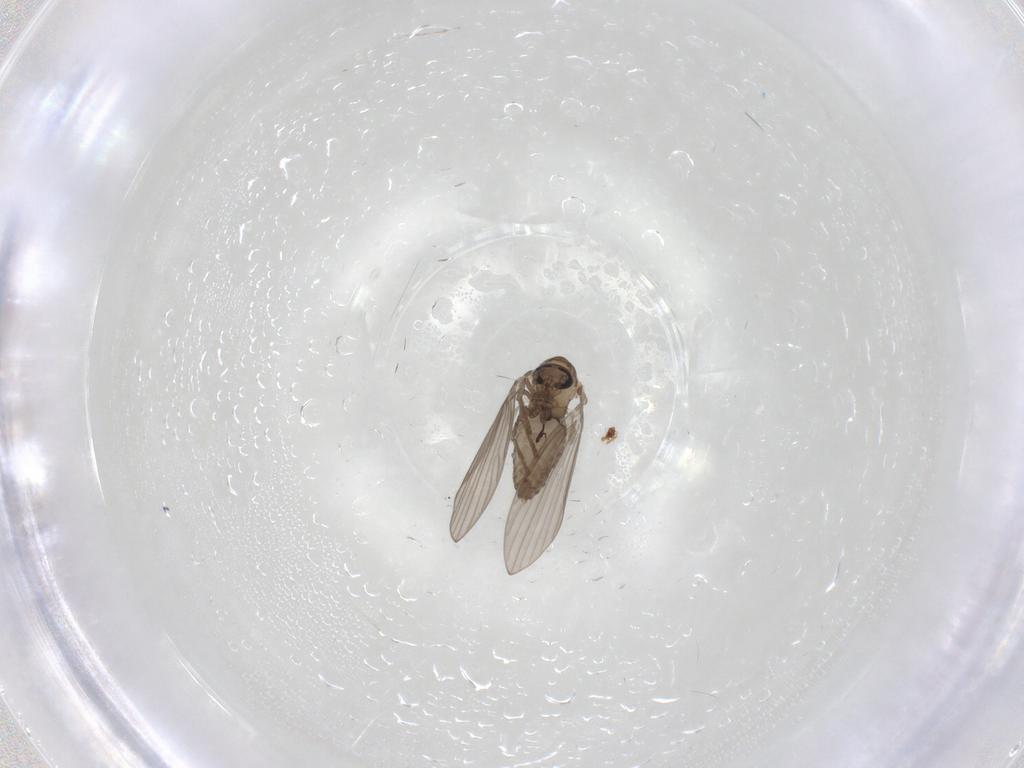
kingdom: Animalia
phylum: Arthropoda
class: Insecta
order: Diptera
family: Psychodidae
